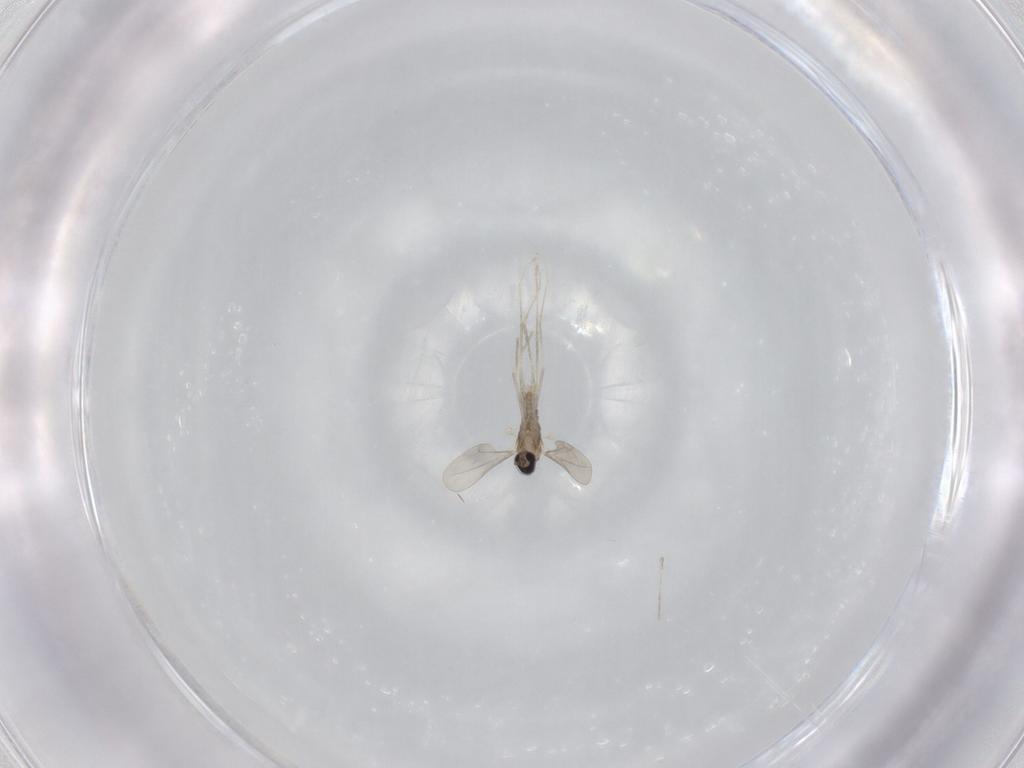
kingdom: Animalia
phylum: Arthropoda
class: Insecta
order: Diptera
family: Cecidomyiidae
